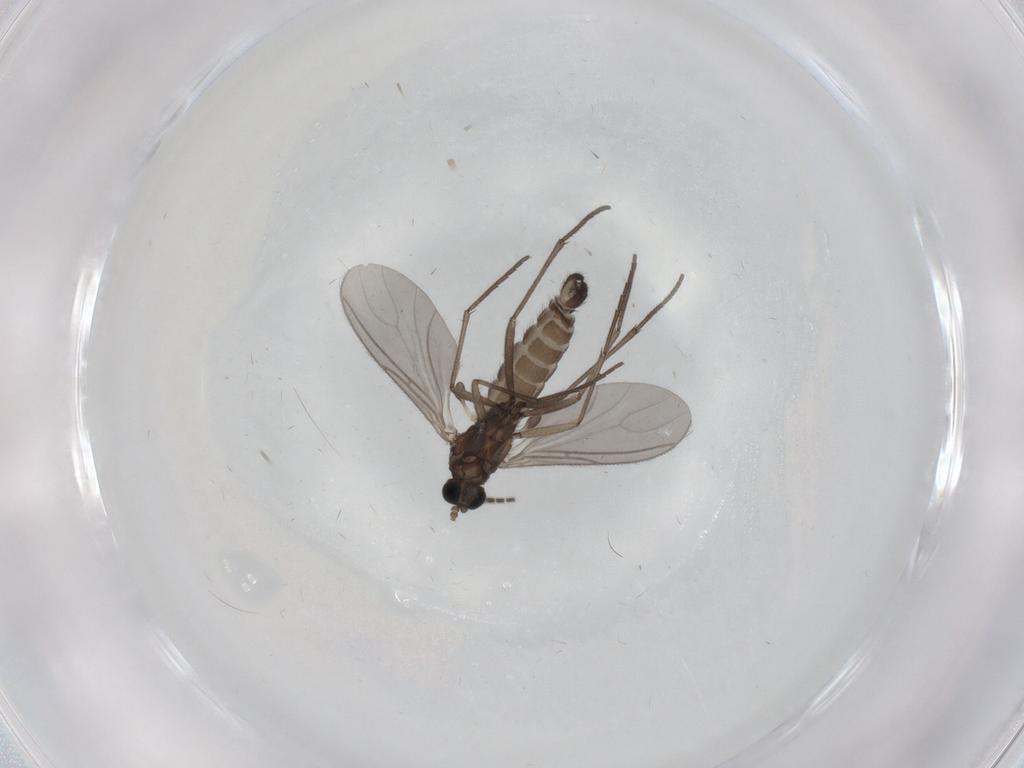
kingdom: Animalia
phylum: Arthropoda
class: Insecta
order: Diptera
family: Sciaridae
